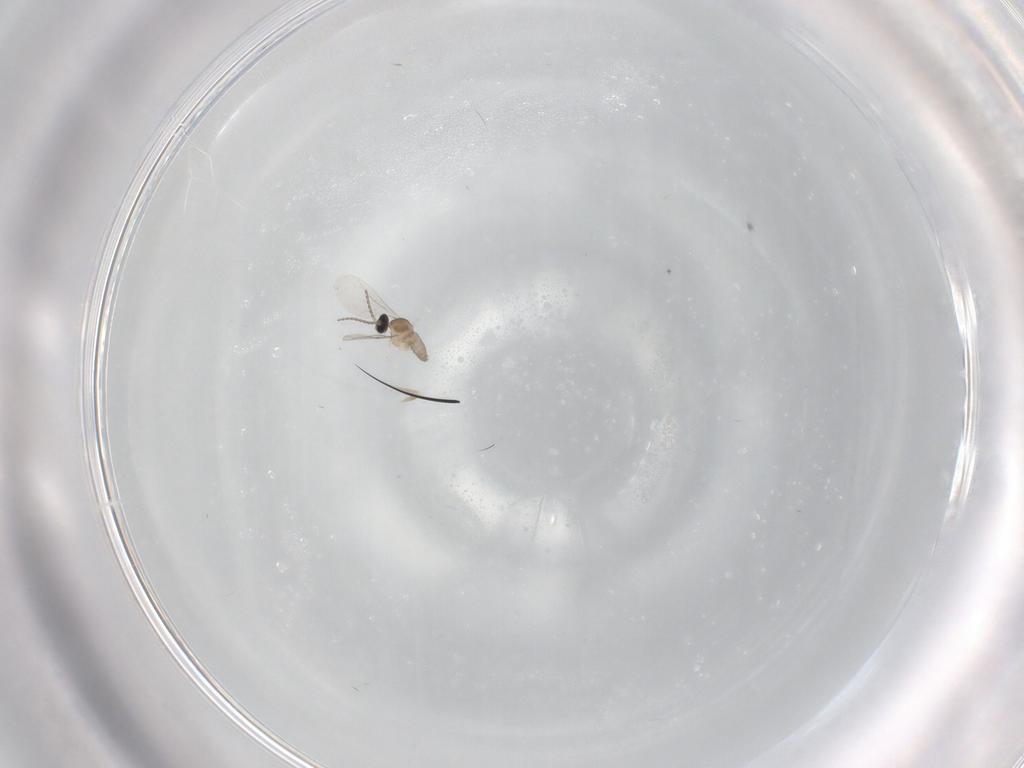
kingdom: Animalia
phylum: Arthropoda
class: Insecta
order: Diptera
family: Cecidomyiidae
